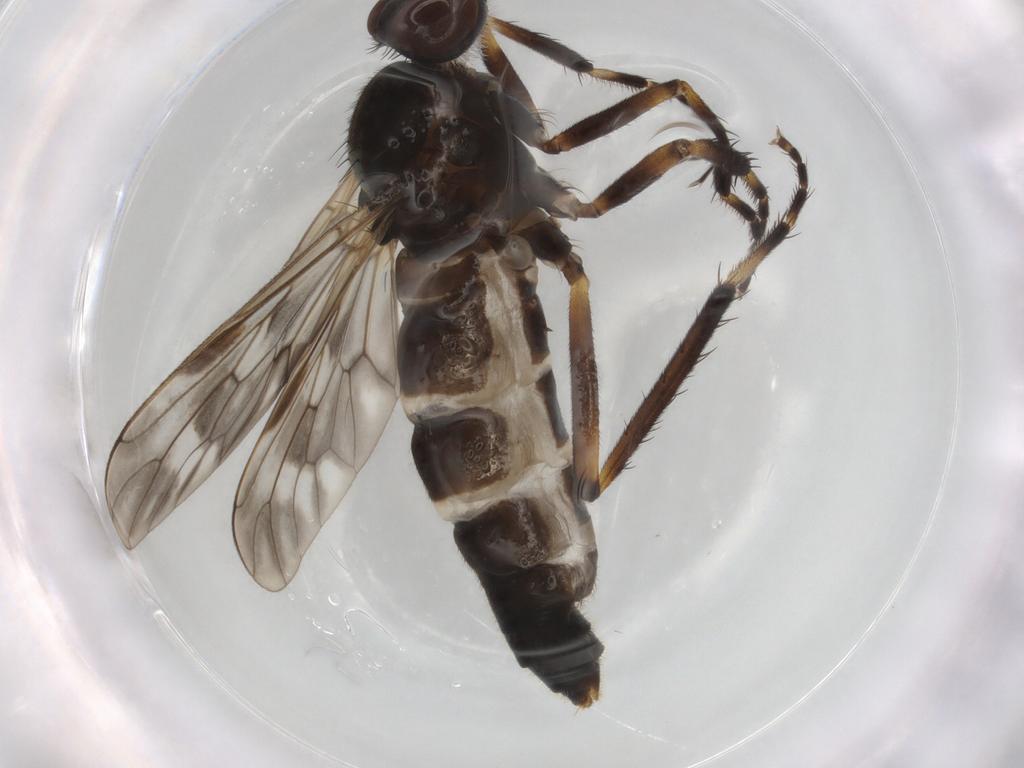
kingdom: Animalia
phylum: Arthropoda
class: Insecta
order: Diptera
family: Therevidae
